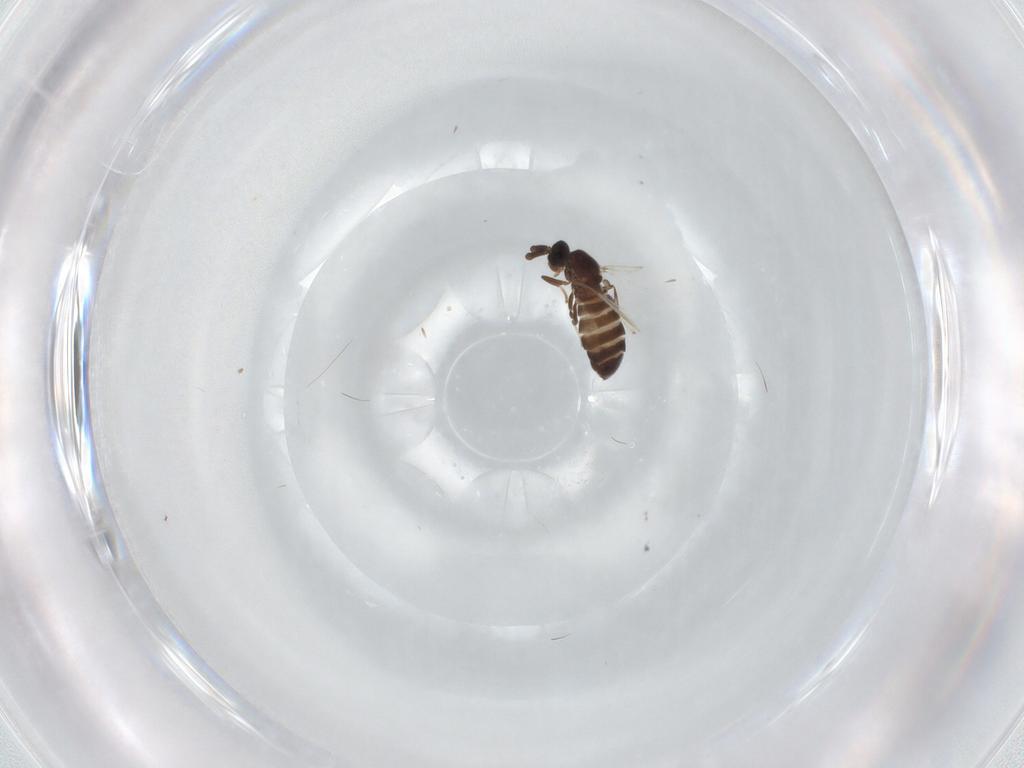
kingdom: Animalia
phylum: Arthropoda
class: Insecta
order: Diptera
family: Scatopsidae
